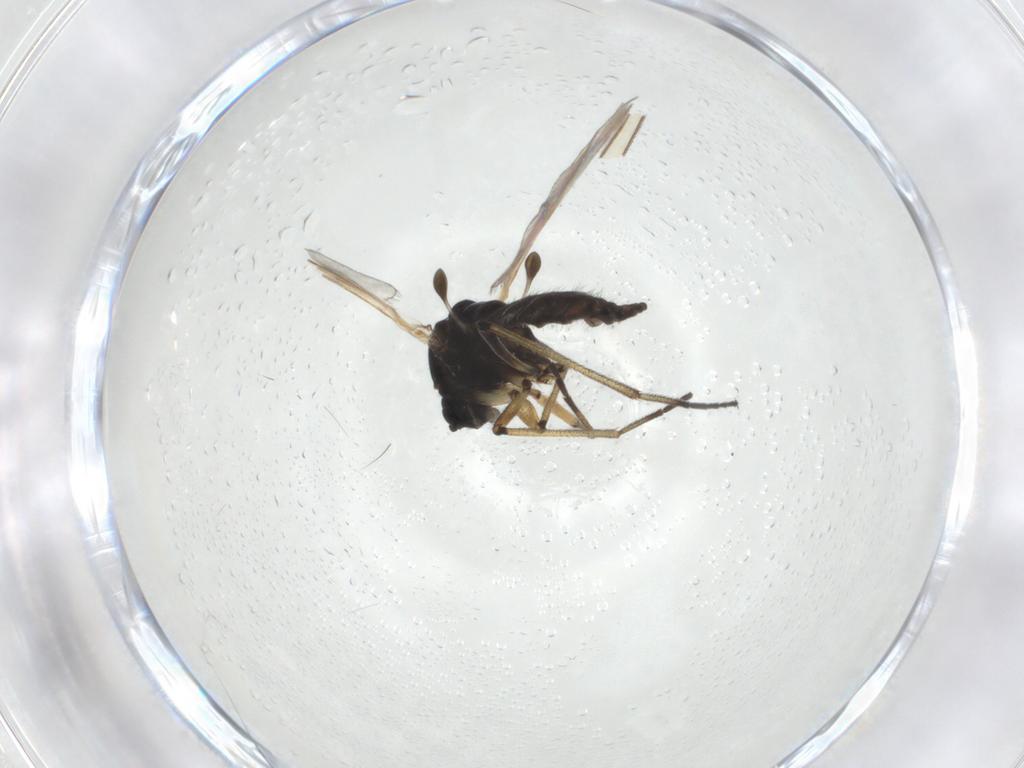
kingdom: Animalia
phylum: Arthropoda
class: Insecta
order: Diptera
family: Sciaridae
